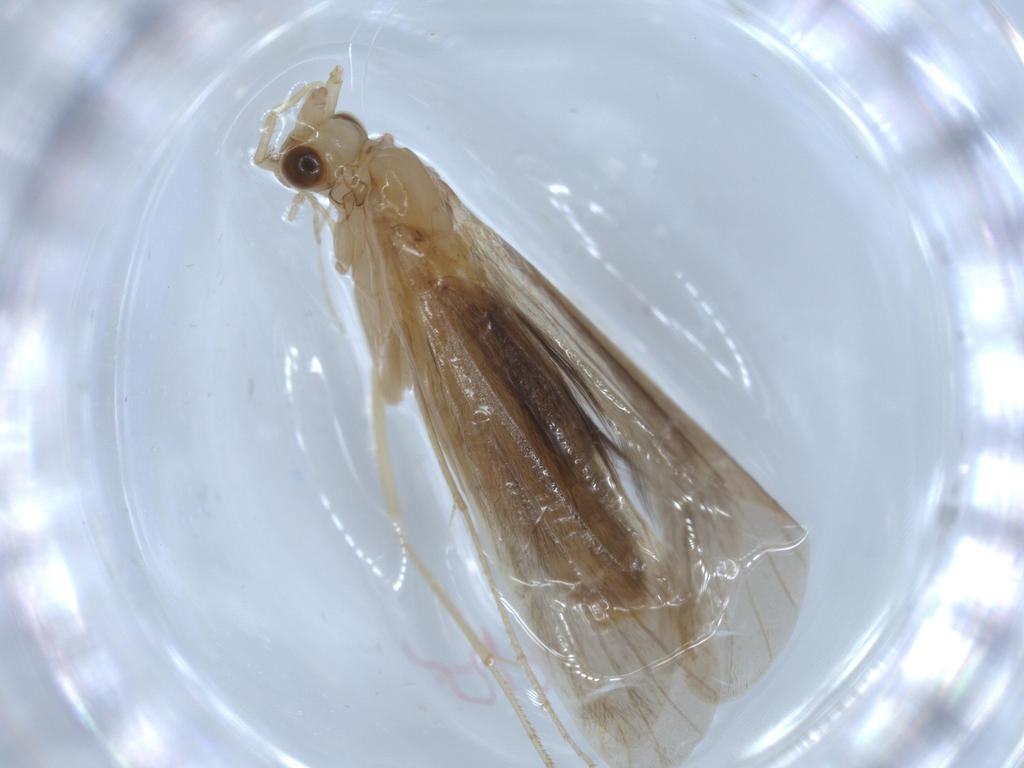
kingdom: Animalia
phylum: Arthropoda
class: Insecta
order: Trichoptera
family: Leptoceridae
